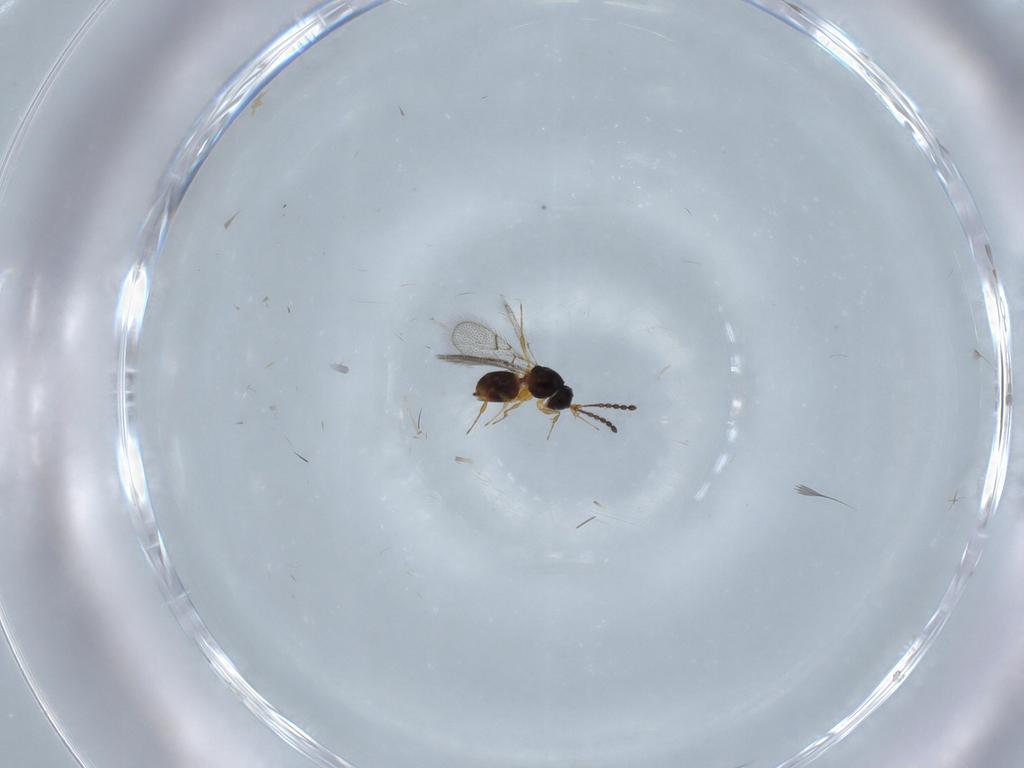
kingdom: Animalia
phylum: Arthropoda
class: Insecta
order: Hymenoptera
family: Figitidae
